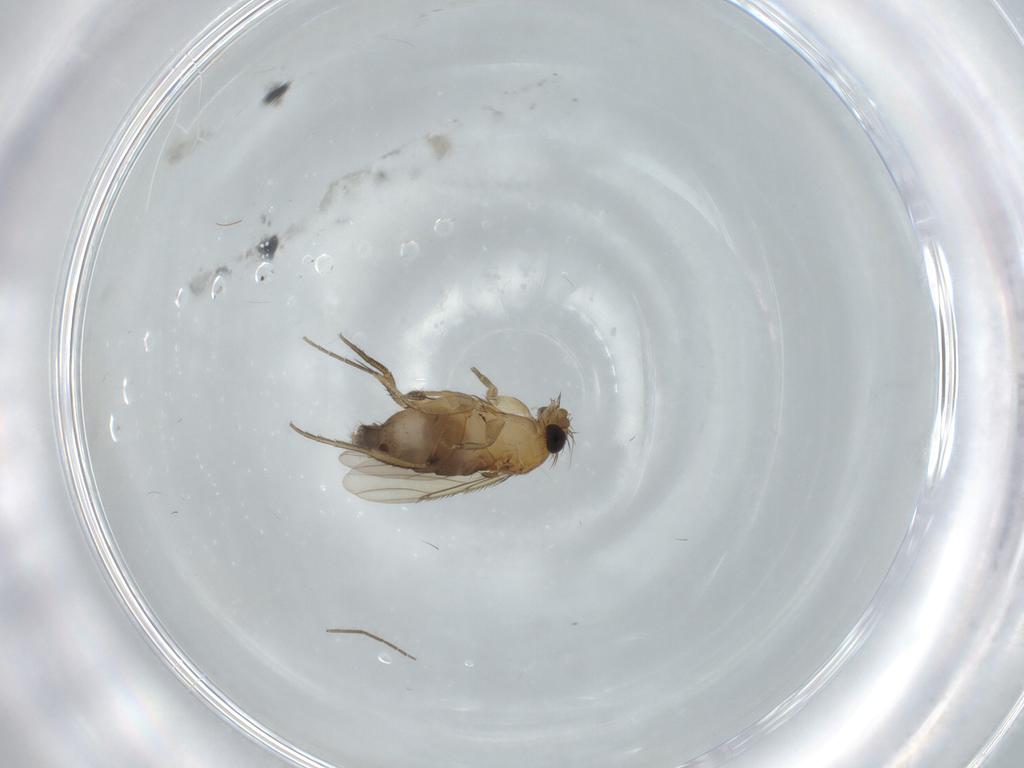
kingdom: Animalia
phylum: Arthropoda
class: Insecta
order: Diptera
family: Phoridae
